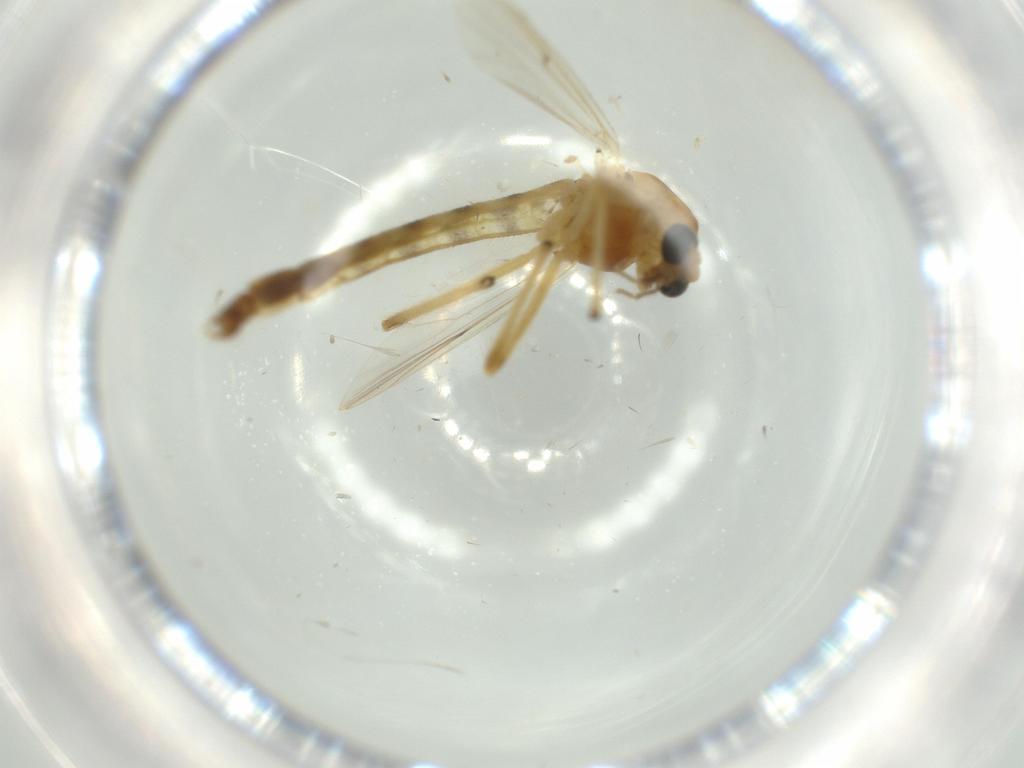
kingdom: Animalia
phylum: Arthropoda
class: Insecta
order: Diptera
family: Chironomidae
